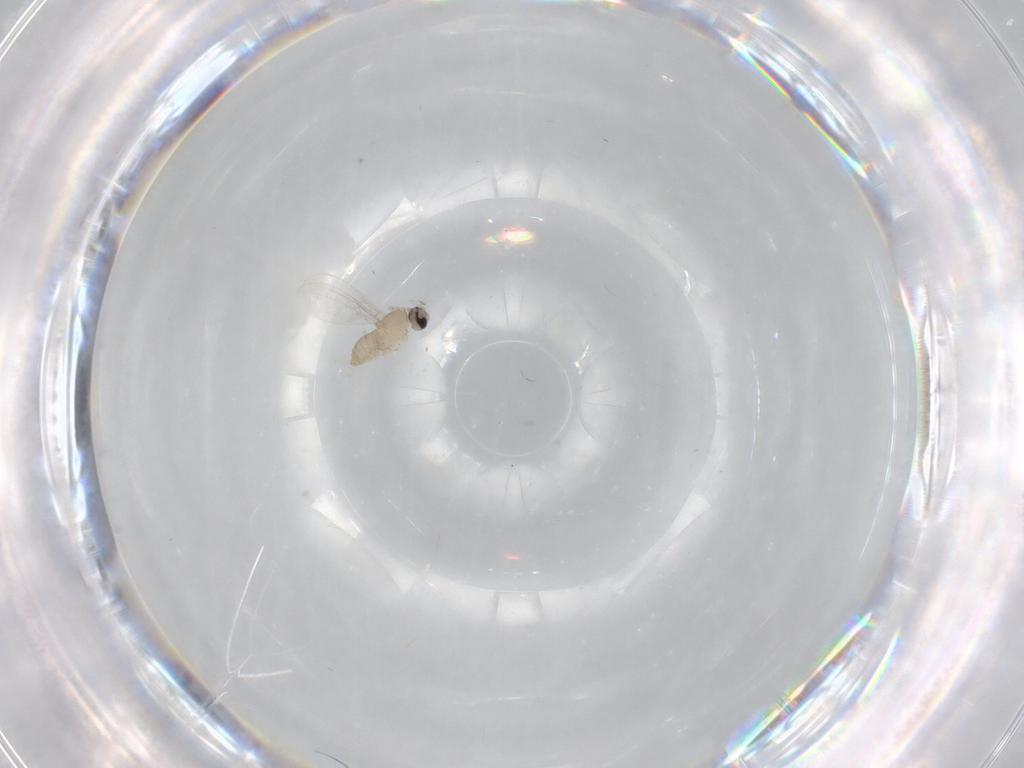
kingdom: Animalia
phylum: Arthropoda
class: Insecta
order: Diptera
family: Cecidomyiidae
